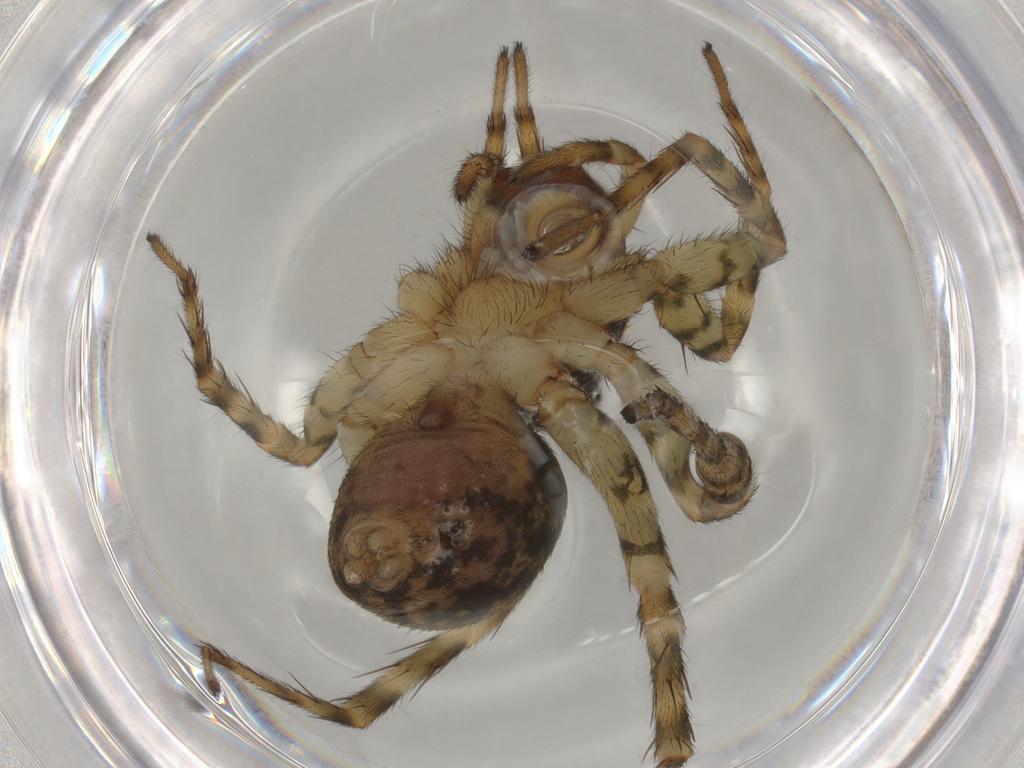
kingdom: Animalia
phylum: Arthropoda
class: Arachnida
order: Araneae
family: Lycosidae
